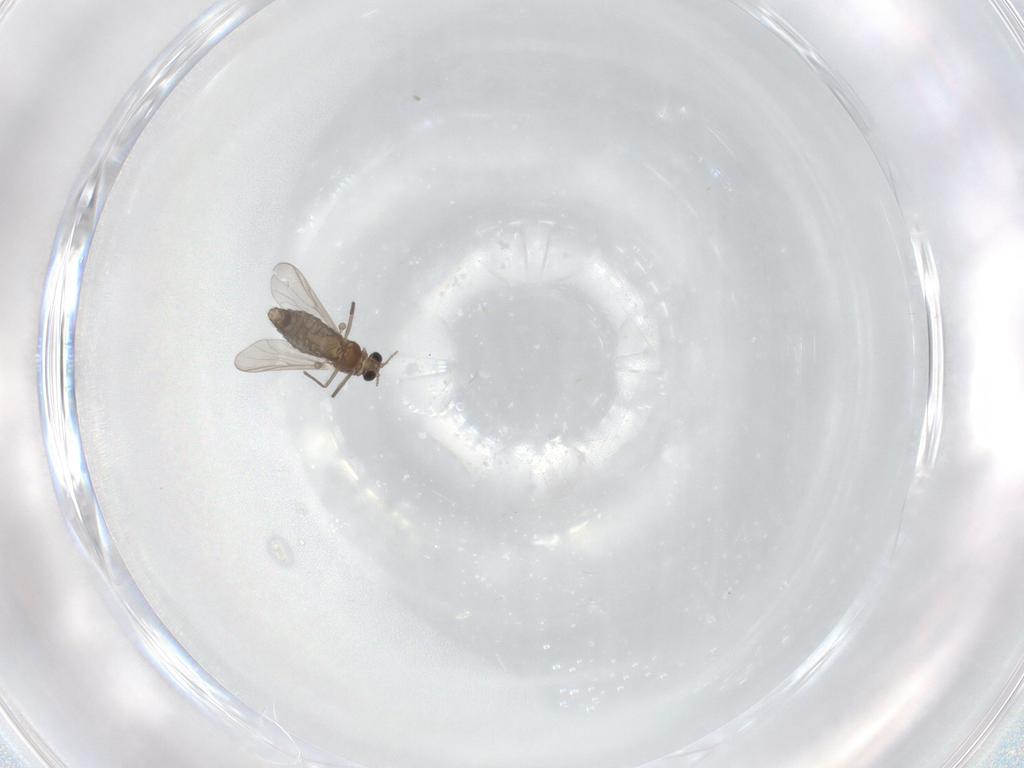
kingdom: Animalia
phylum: Arthropoda
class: Insecta
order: Diptera
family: Chironomidae
